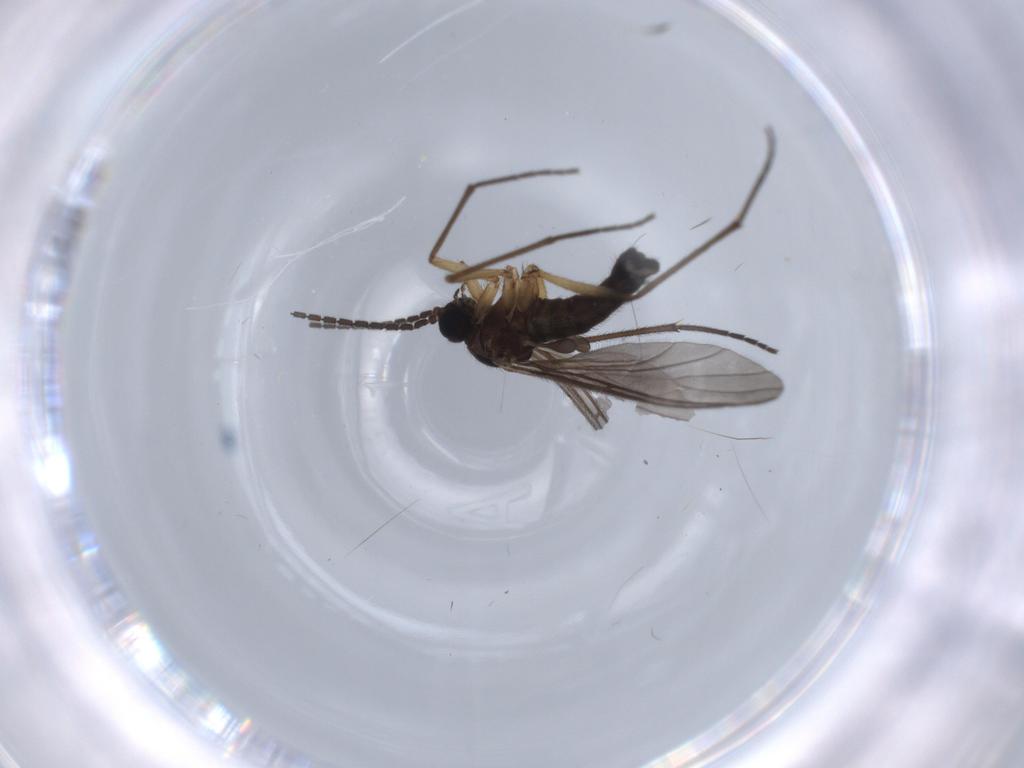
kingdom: Animalia
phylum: Arthropoda
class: Insecta
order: Diptera
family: Sciaridae
